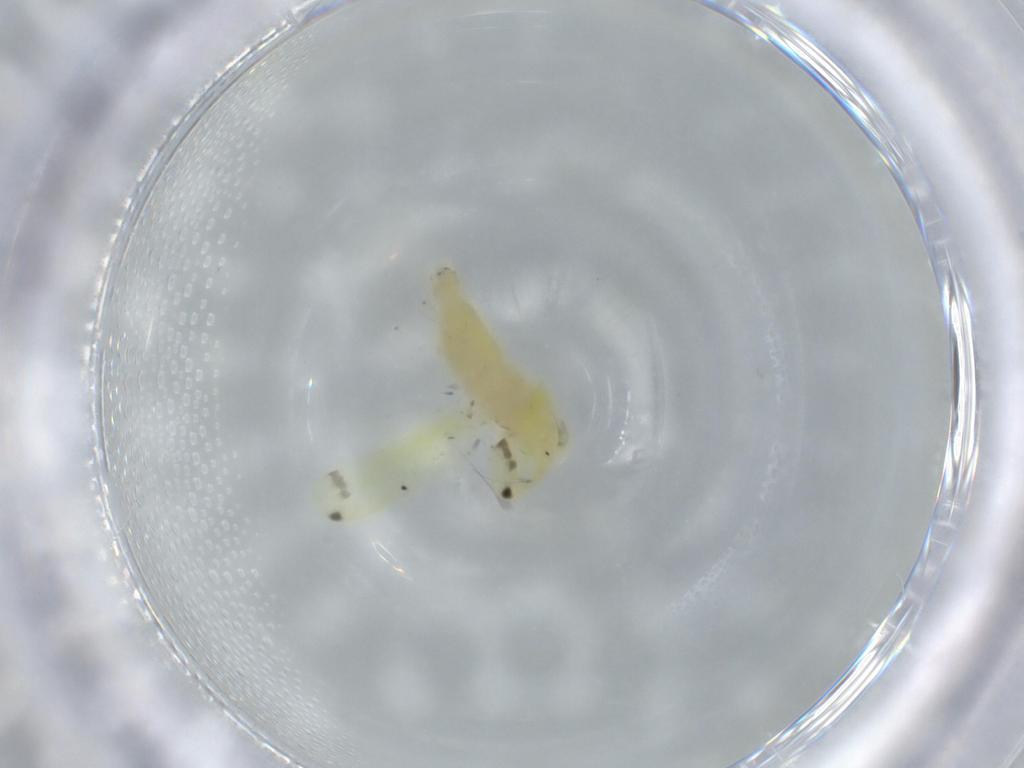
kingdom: Animalia
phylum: Arthropoda
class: Insecta
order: Hemiptera
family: Cicadellidae
